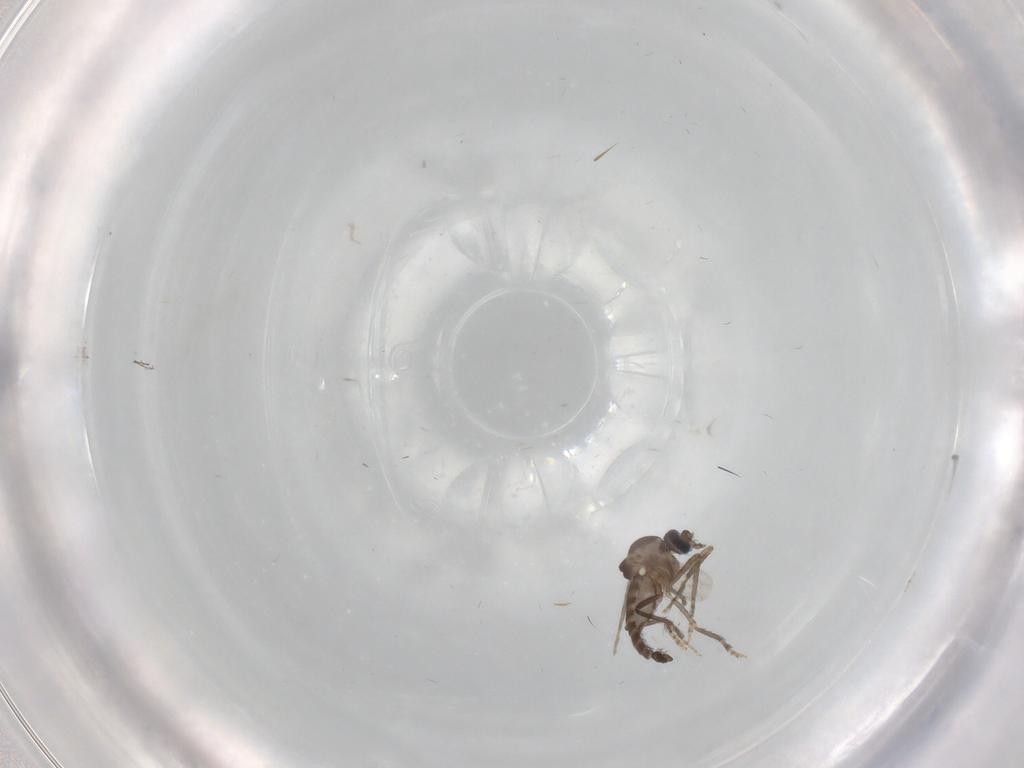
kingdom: Animalia
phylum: Arthropoda
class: Insecta
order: Diptera
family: Ceratopogonidae
